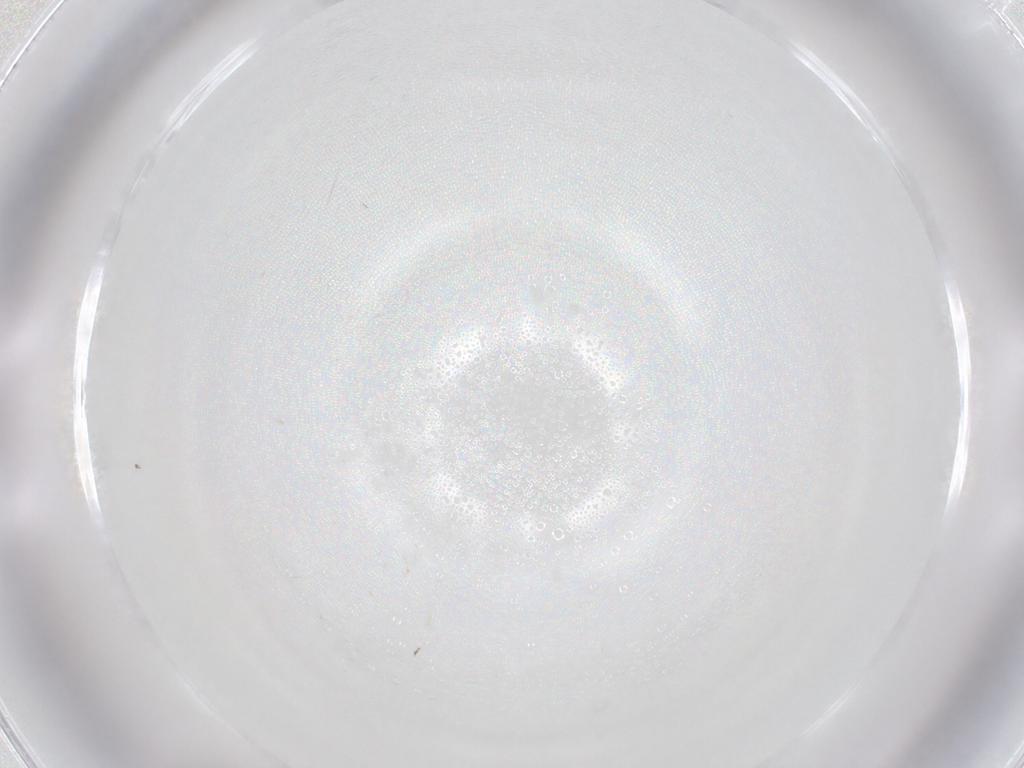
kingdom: Animalia
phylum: Arthropoda
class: Insecta
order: Diptera
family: Ceratopogonidae
